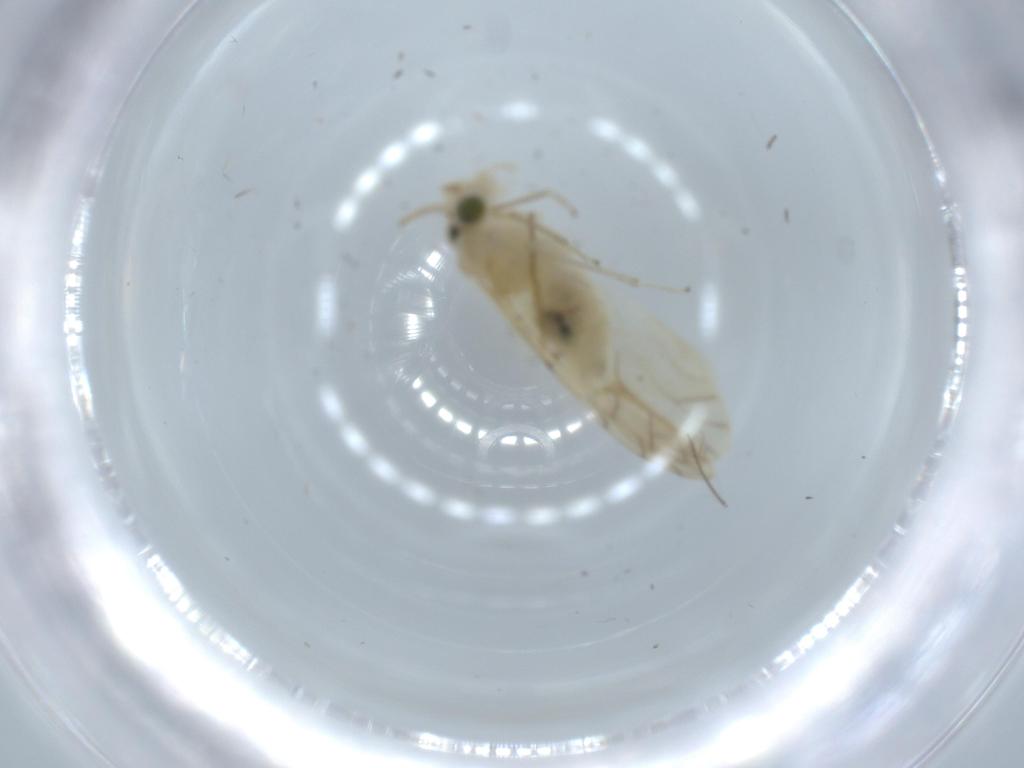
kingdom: Animalia
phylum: Arthropoda
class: Insecta
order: Psocodea
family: Caeciliusidae
